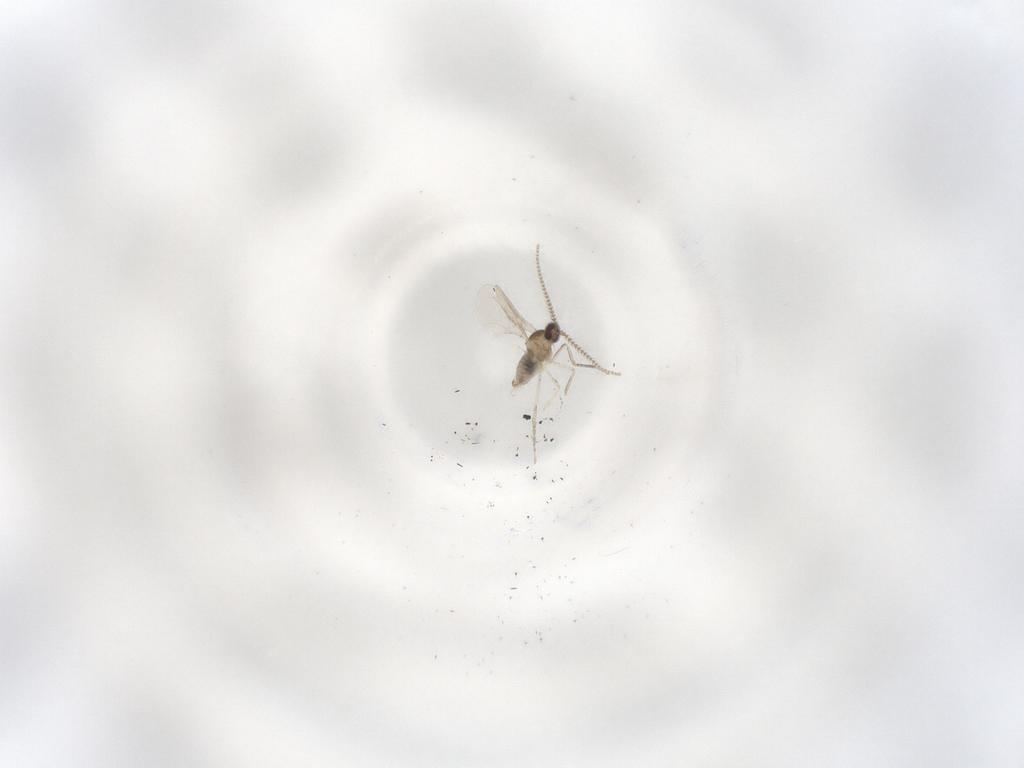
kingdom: Animalia
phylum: Arthropoda
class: Insecta
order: Diptera
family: Cecidomyiidae
